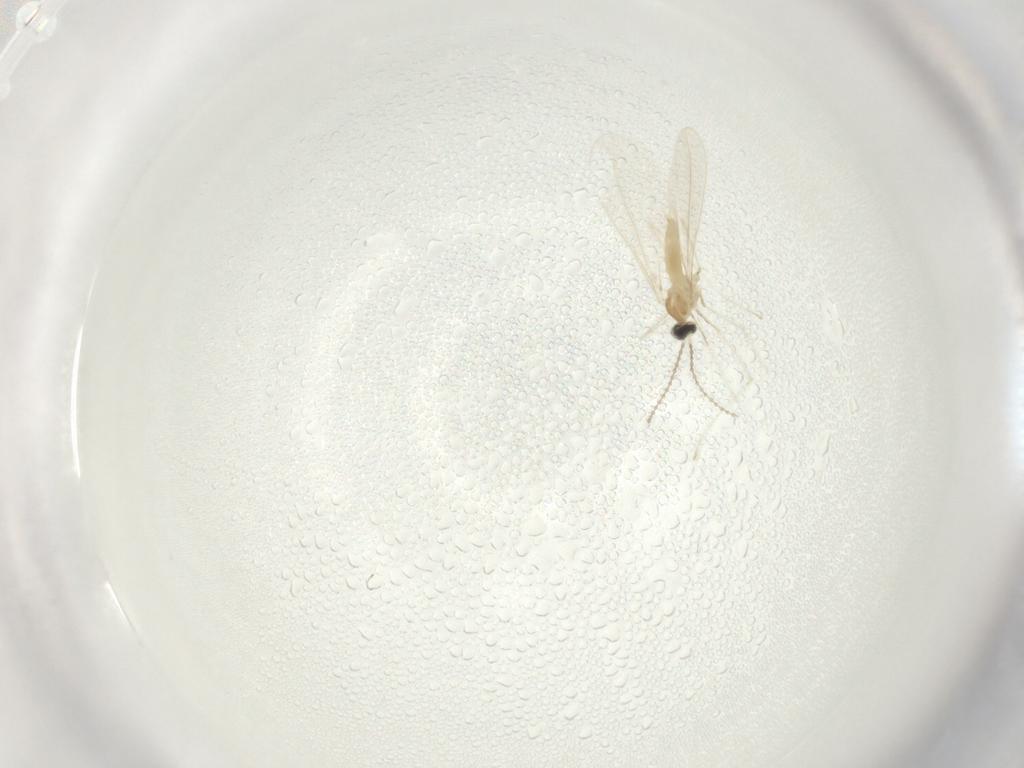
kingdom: Animalia
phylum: Arthropoda
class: Insecta
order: Diptera
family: Cecidomyiidae
